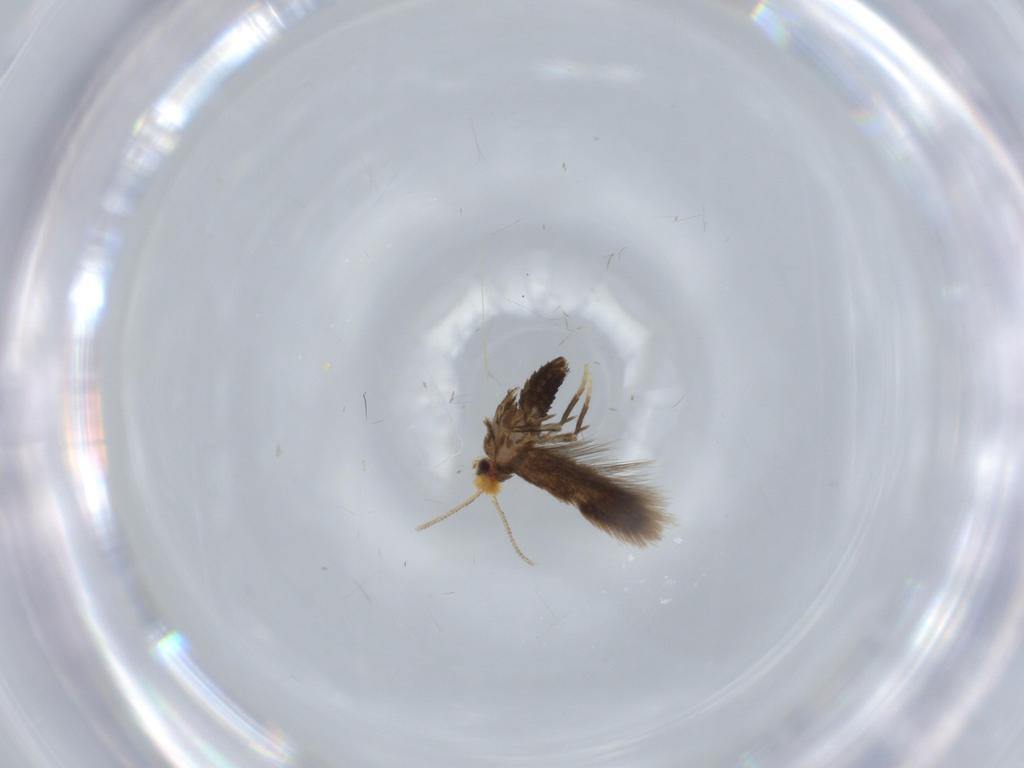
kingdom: Animalia
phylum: Arthropoda
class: Insecta
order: Lepidoptera
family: Nepticulidae
